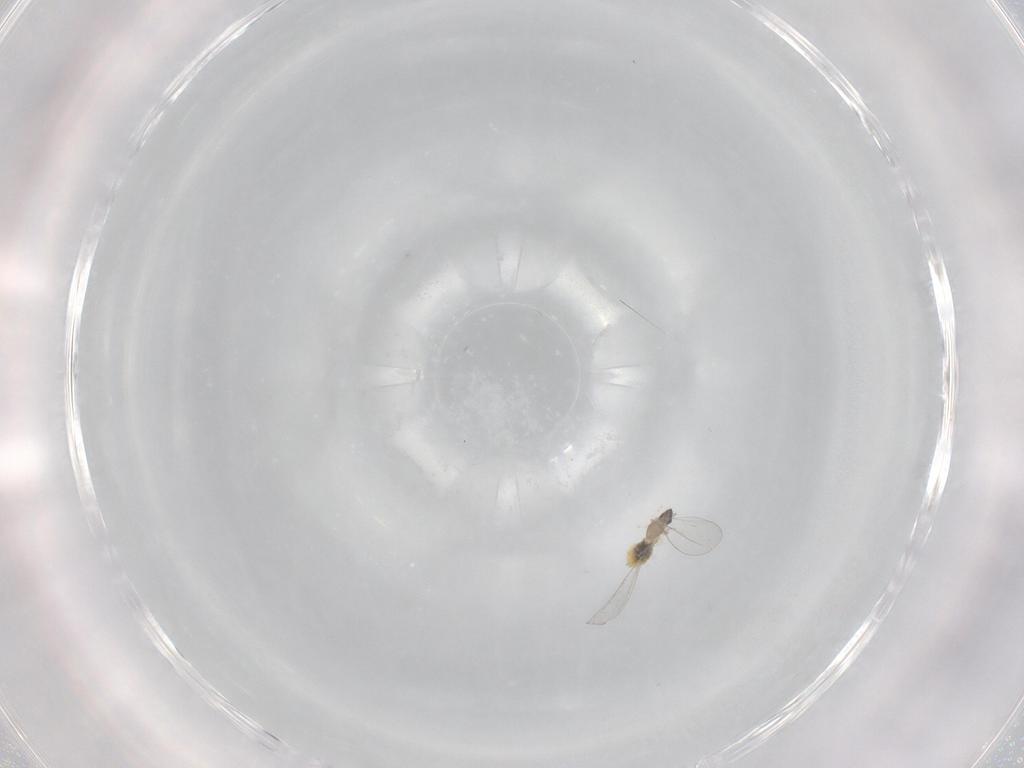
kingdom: Animalia
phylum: Arthropoda
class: Insecta
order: Diptera
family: Cecidomyiidae
